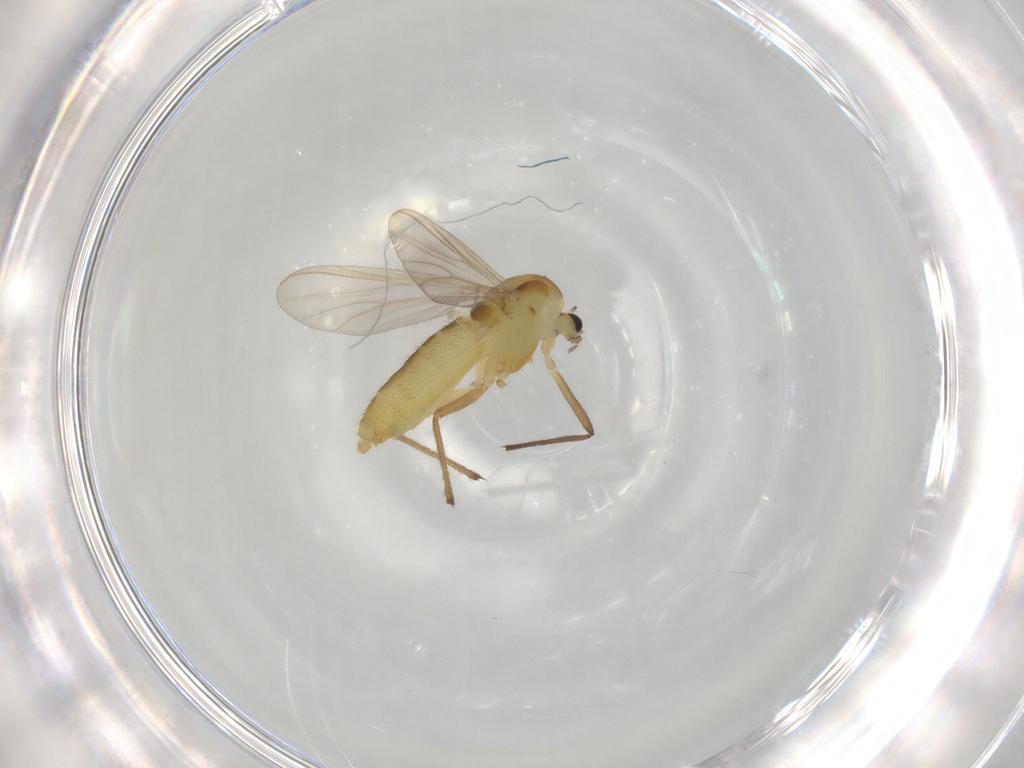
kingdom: Animalia
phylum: Arthropoda
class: Insecta
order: Diptera
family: Chironomidae
